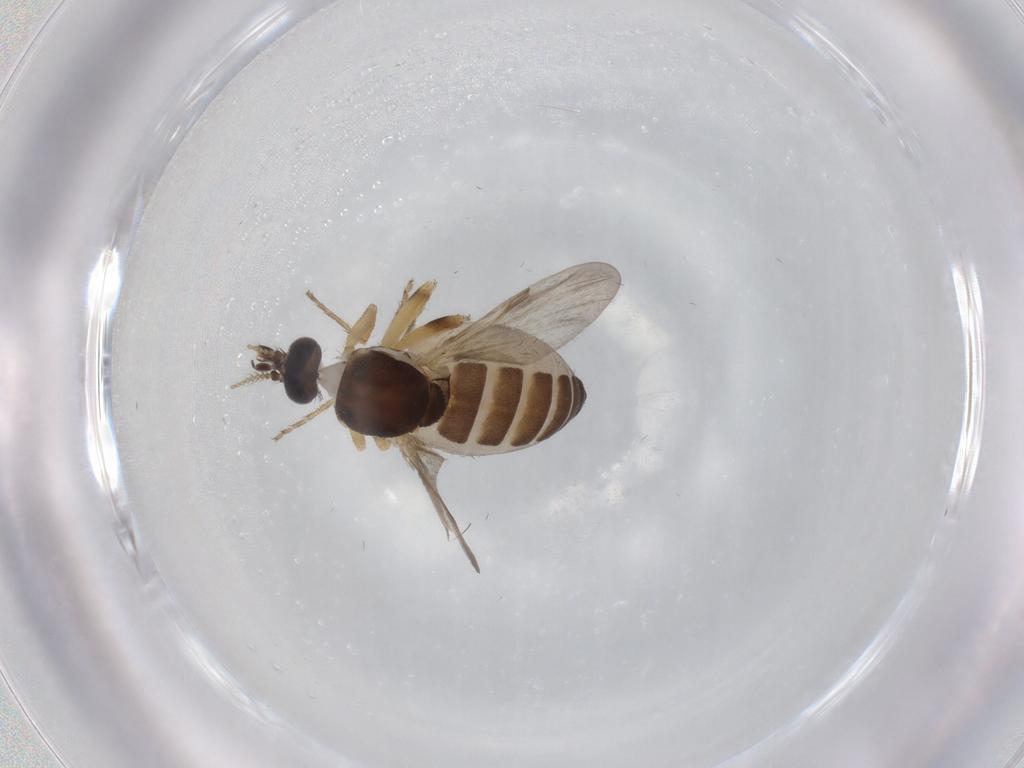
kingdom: Animalia
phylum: Arthropoda
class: Insecta
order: Diptera
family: Ceratopogonidae
